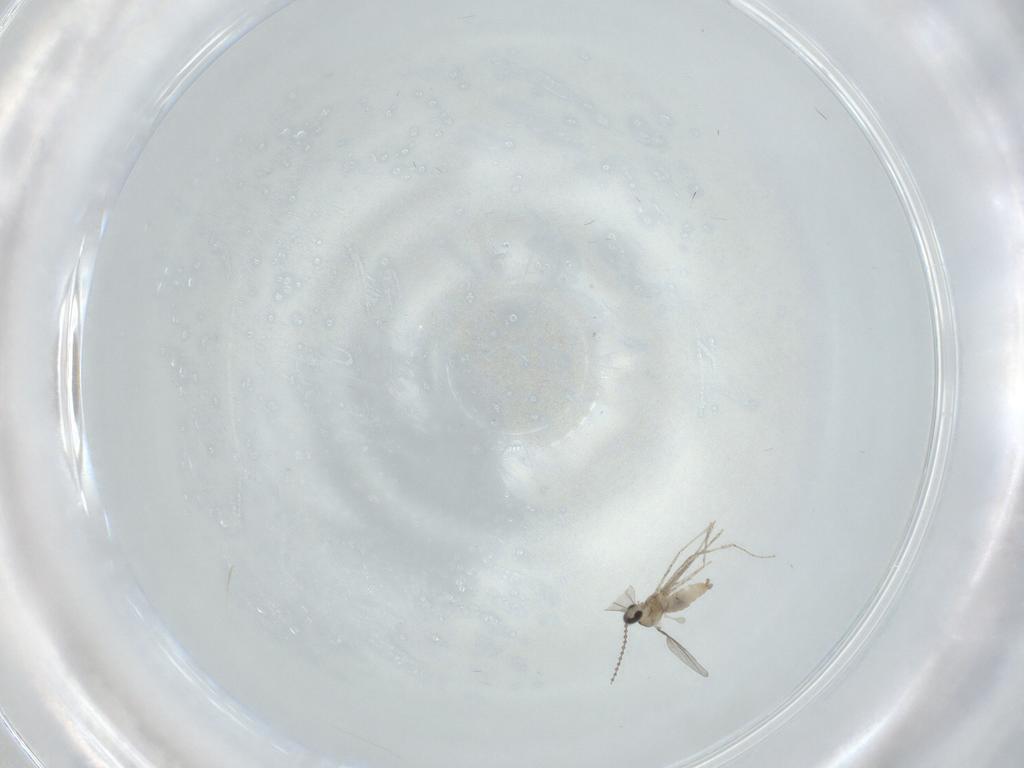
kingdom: Animalia
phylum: Arthropoda
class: Insecta
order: Diptera
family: Cecidomyiidae
